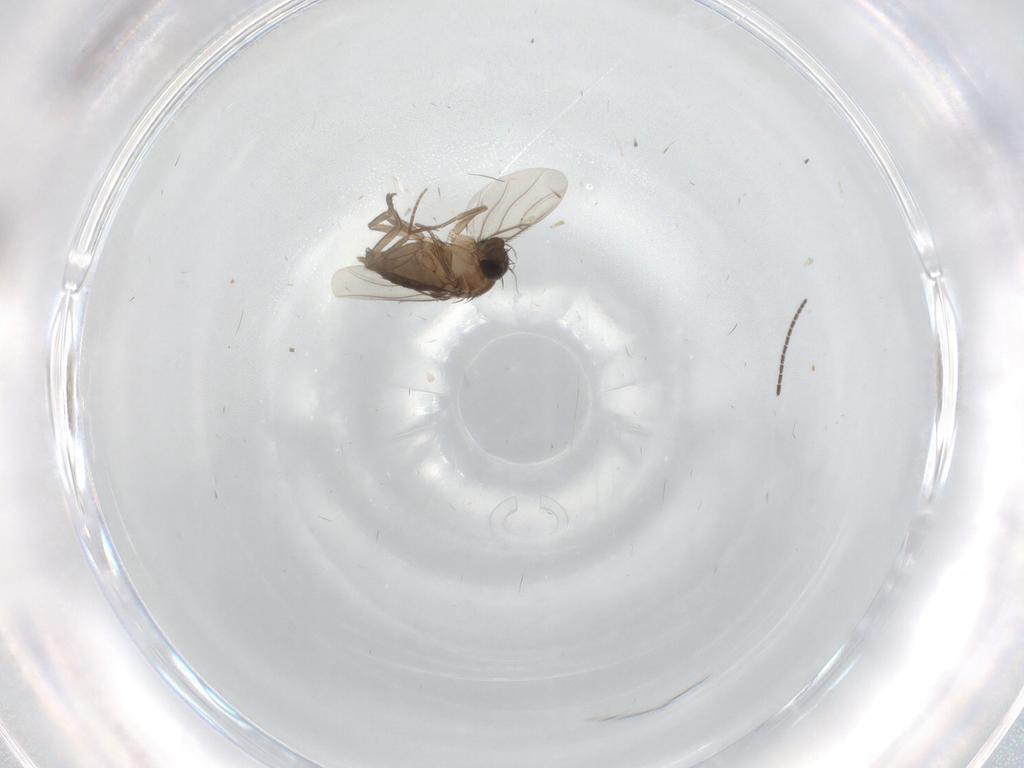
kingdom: Animalia
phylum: Arthropoda
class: Insecta
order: Diptera
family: Phoridae
